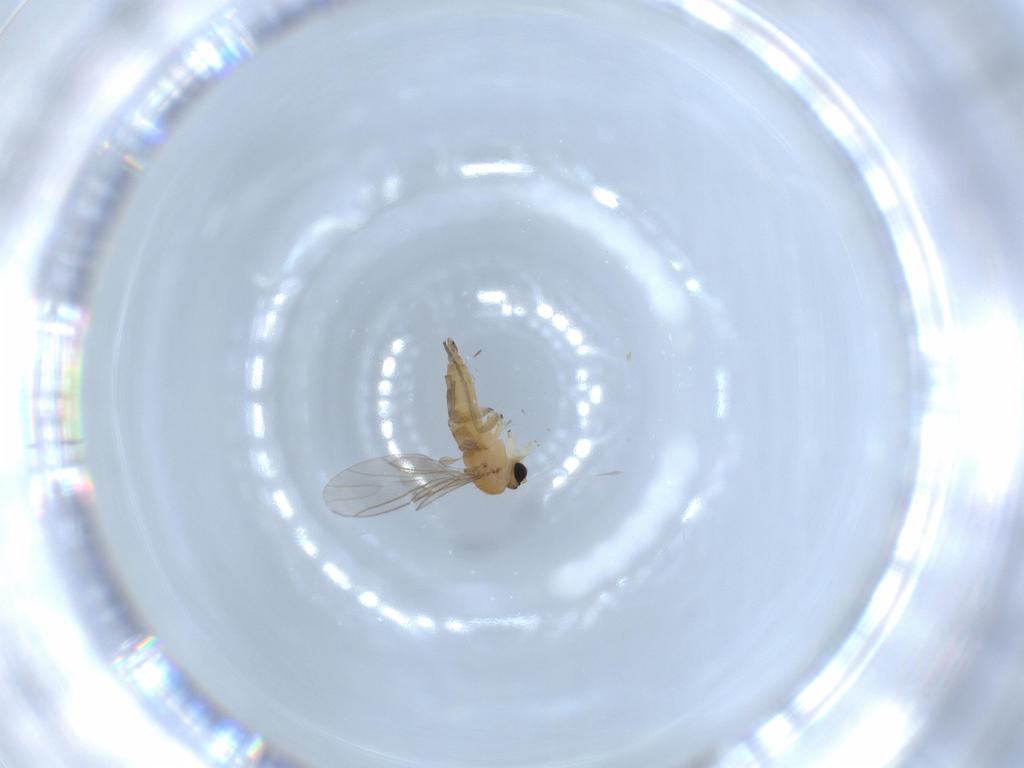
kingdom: Animalia
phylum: Arthropoda
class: Insecta
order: Diptera
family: Sciaridae
